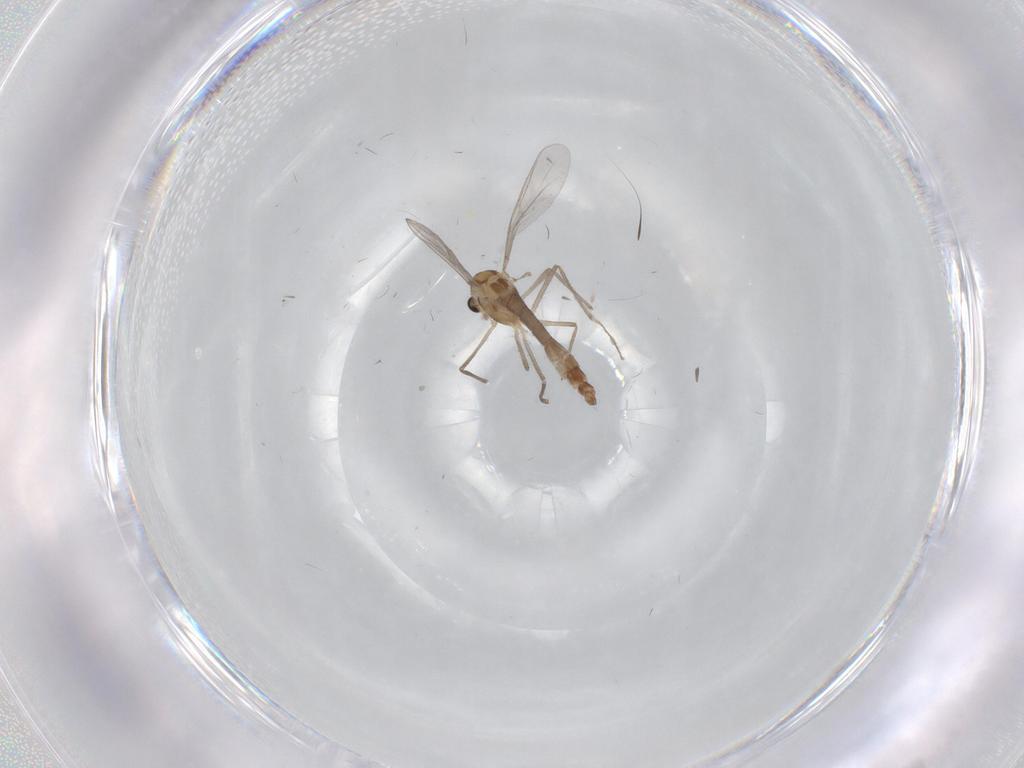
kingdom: Animalia
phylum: Arthropoda
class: Insecta
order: Diptera
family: Chironomidae
